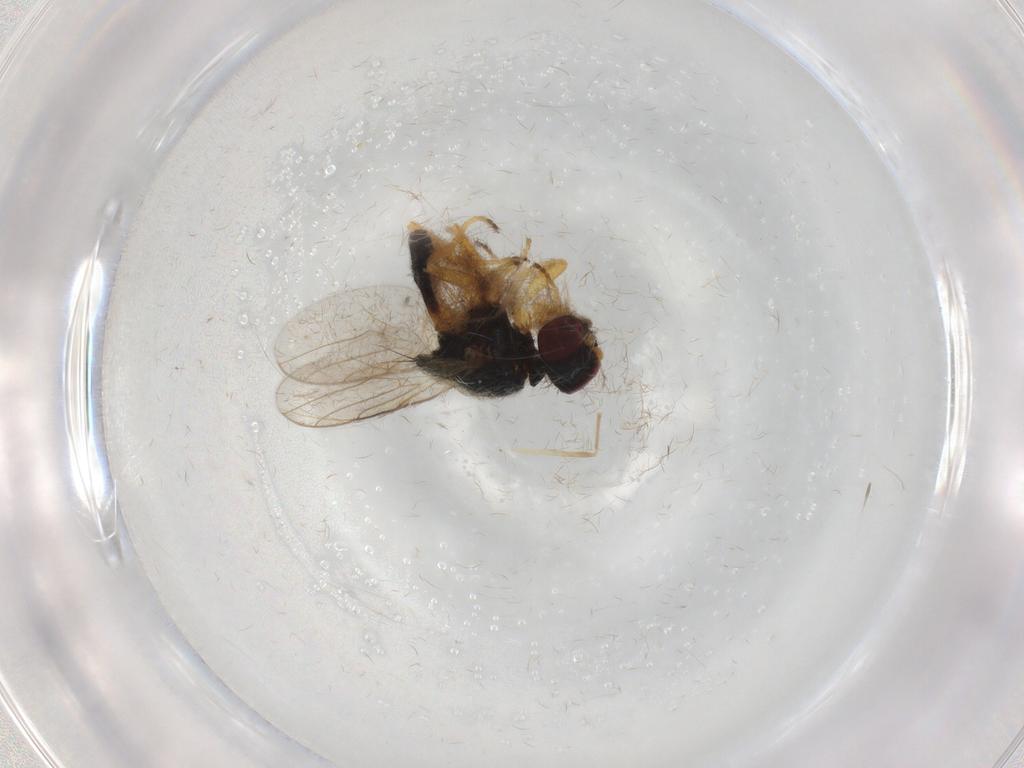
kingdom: Animalia
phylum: Arthropoda
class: Insecta
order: Diptera
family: Chloropidae
